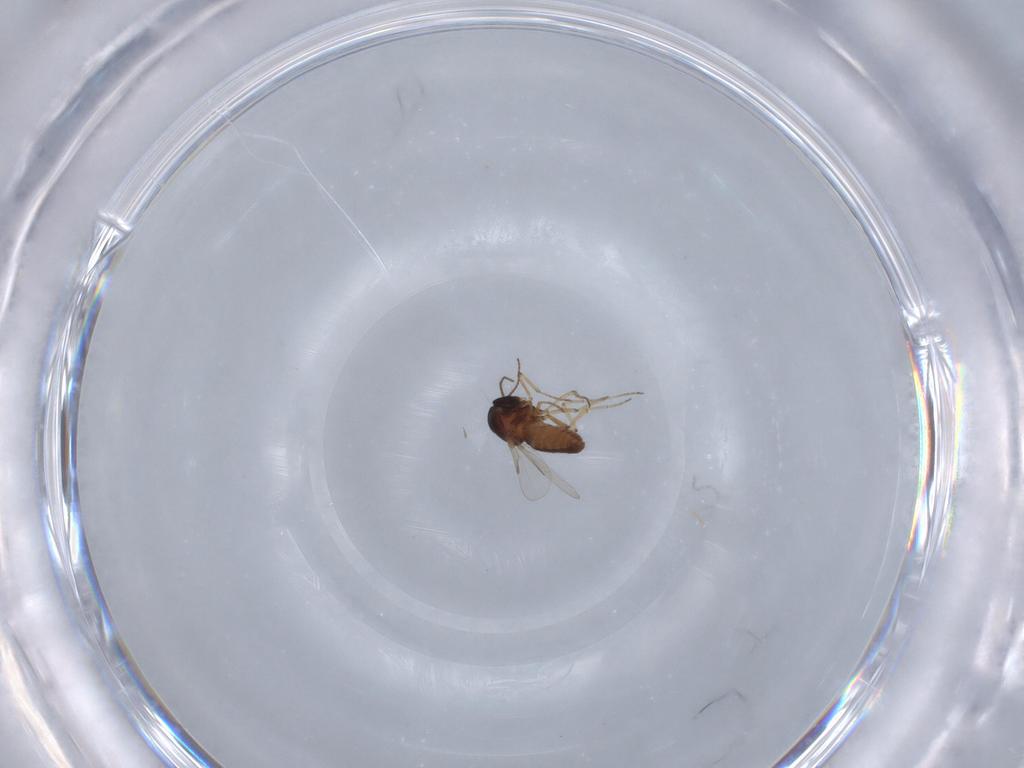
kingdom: Animalia
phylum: Arthropoda
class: Insecta
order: Diptera
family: Ceratopogonidae
